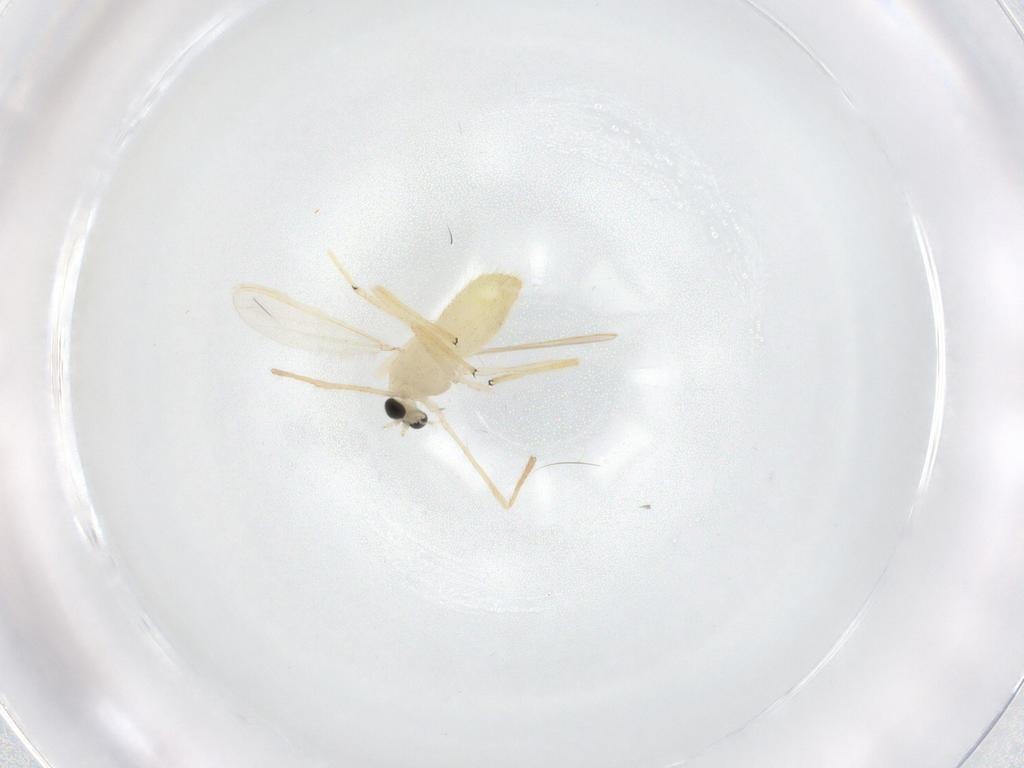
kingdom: Animalia
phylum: Arthropoda
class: Insecta
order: Diptera
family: Chironomidae
